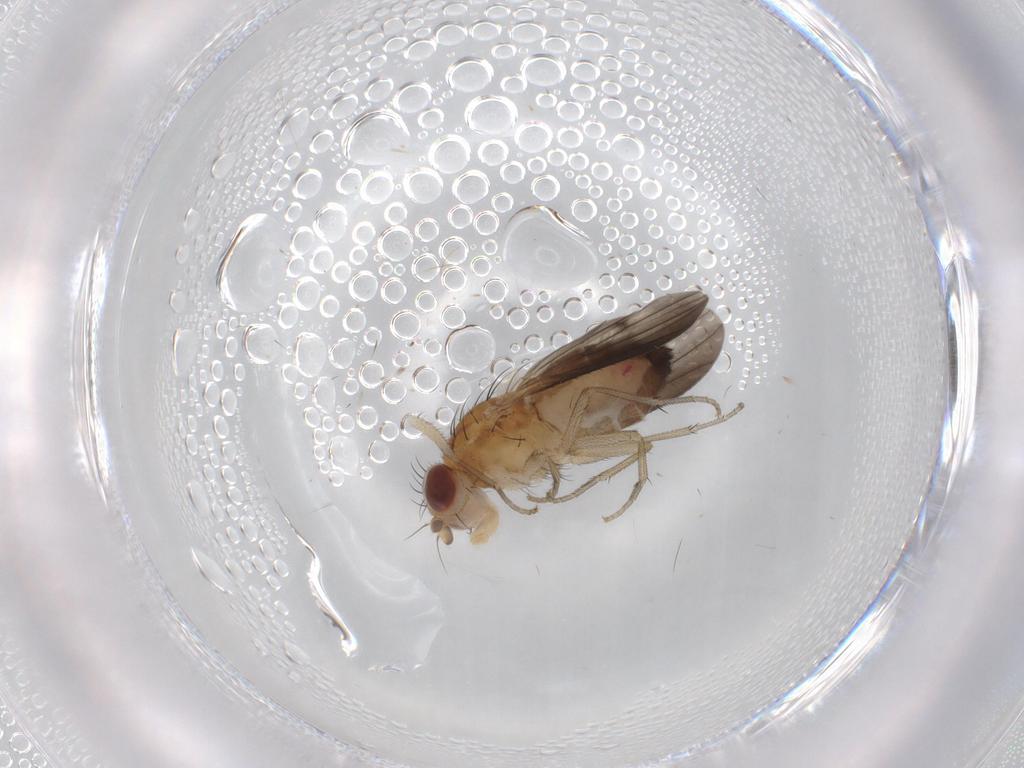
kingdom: Animalia
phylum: Arthropoda
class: Insecta
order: Diptera
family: Heleomyzidae
